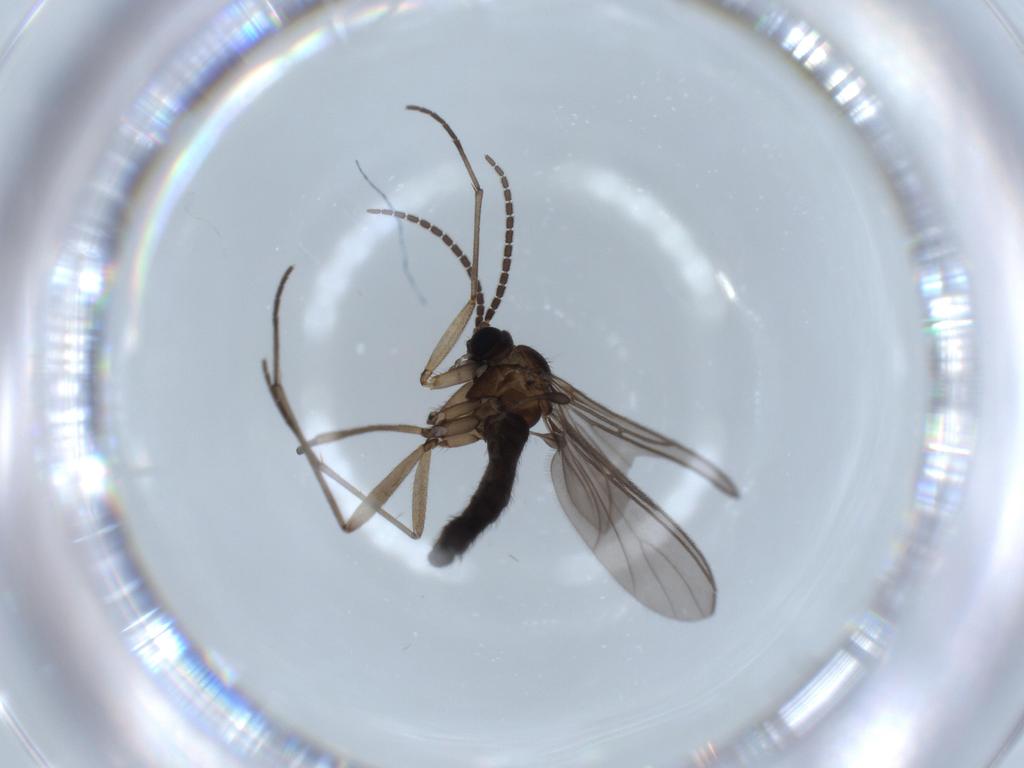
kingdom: Animalia
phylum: Arthropoda
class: Insecta
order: Diptera
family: Sciaridae
